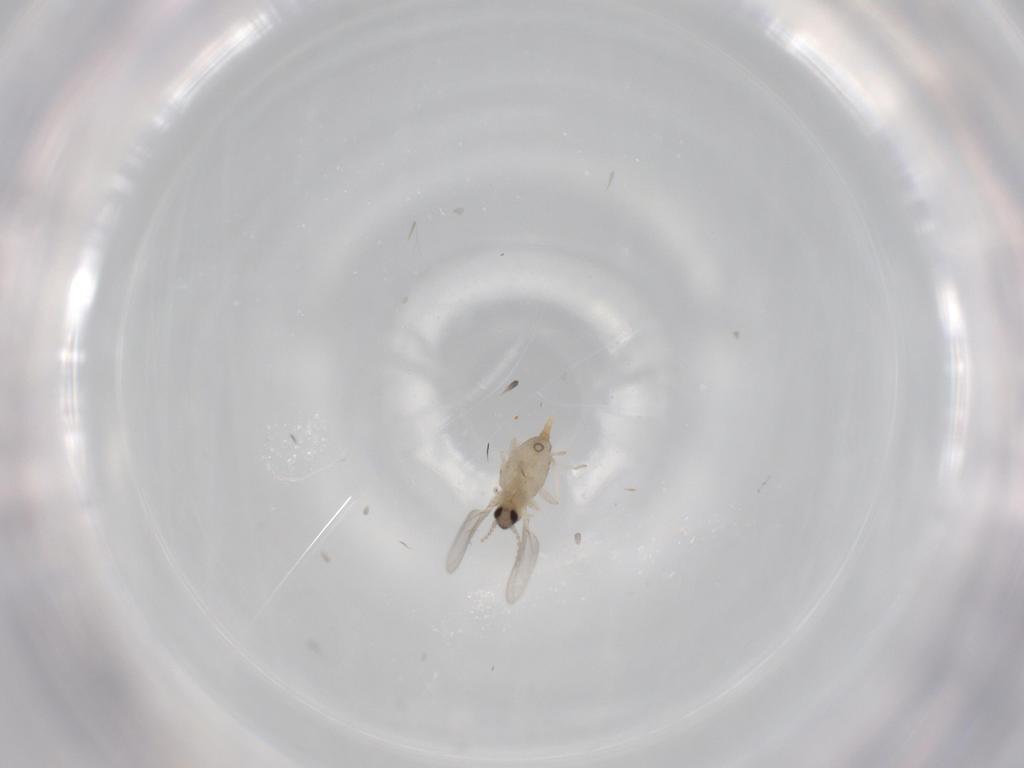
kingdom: Animalia
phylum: Arthropoda
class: Insecta
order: Diptera
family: Cecidomyiidae
